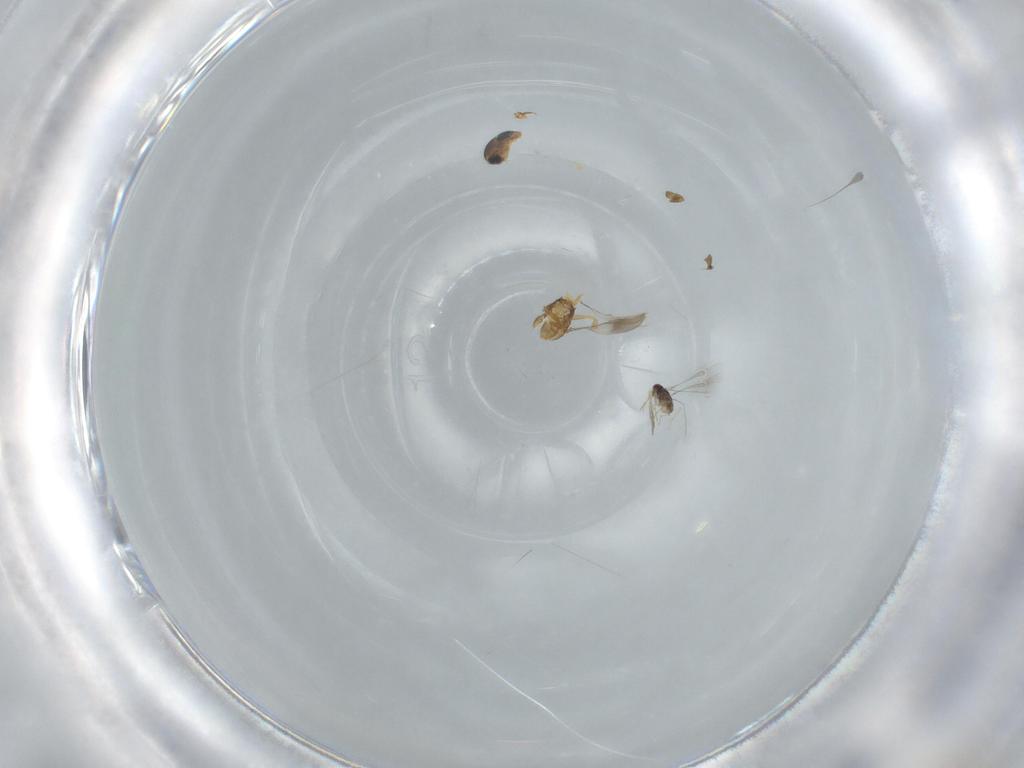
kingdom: Animalia
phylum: Arthropoda
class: Insecta
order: Hymenoptera
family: Scelionidae
